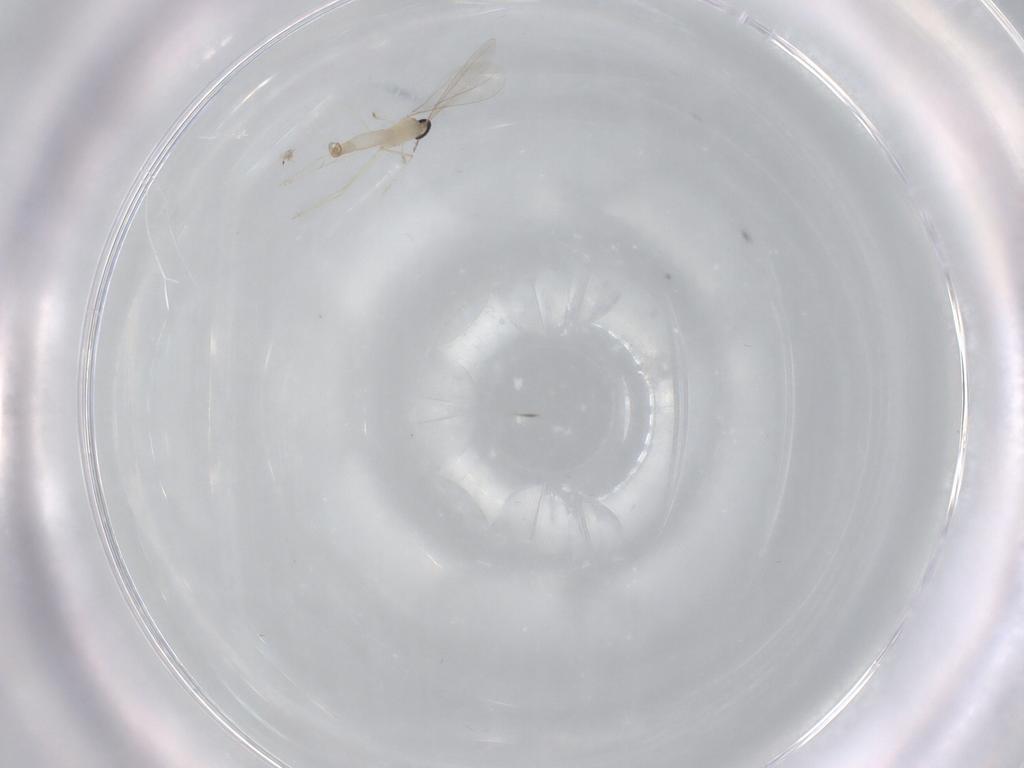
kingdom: Animalia
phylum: Arthropoda
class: Insecta
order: Diptera
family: Cecidomyiidae
